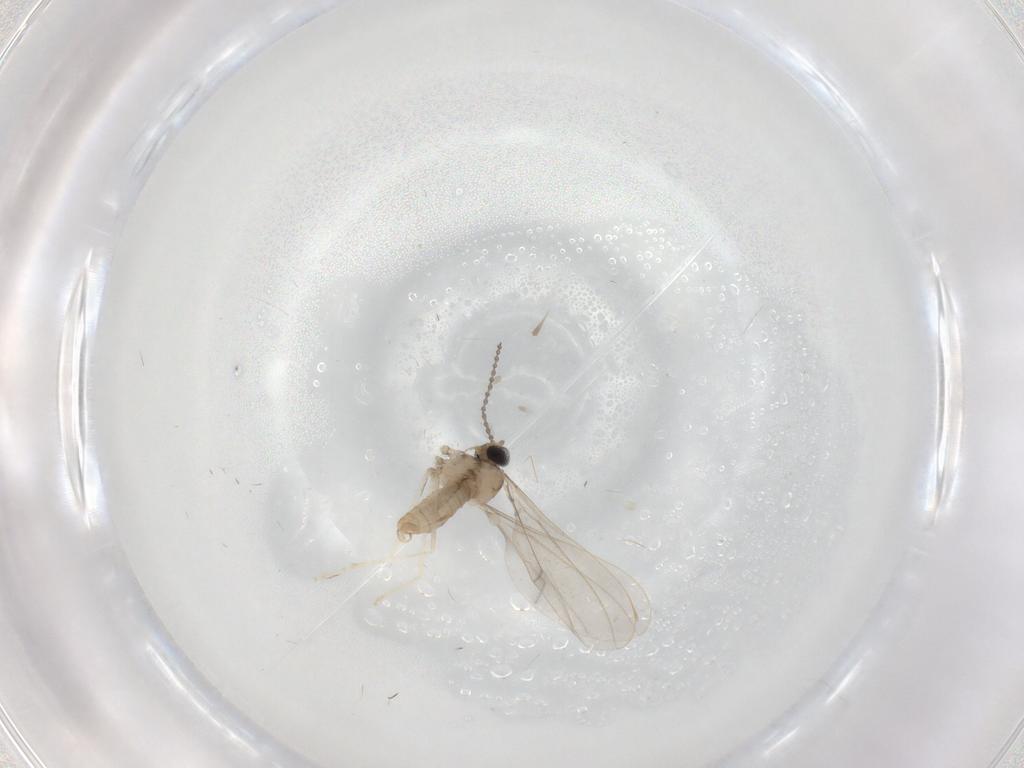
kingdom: Animalia
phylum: Arthropoda
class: Insecta
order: Diptera
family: Cecidomyiidae
